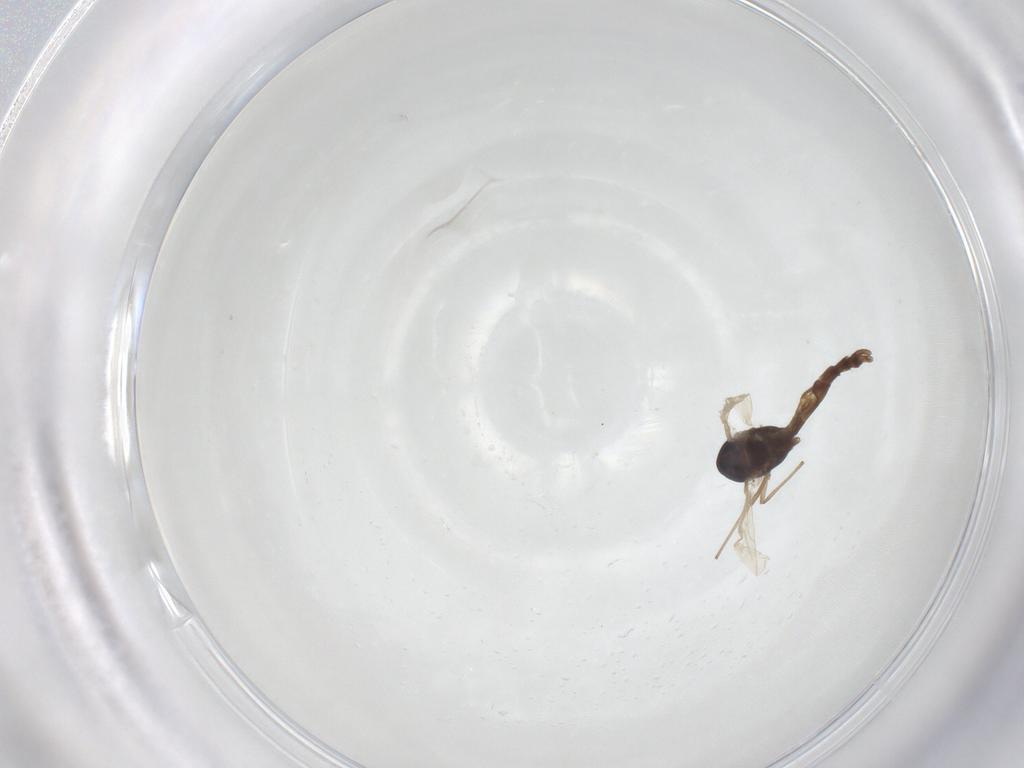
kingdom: Animalia
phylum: Arthropoda
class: Insecta
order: Diptera
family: Chironomidae
